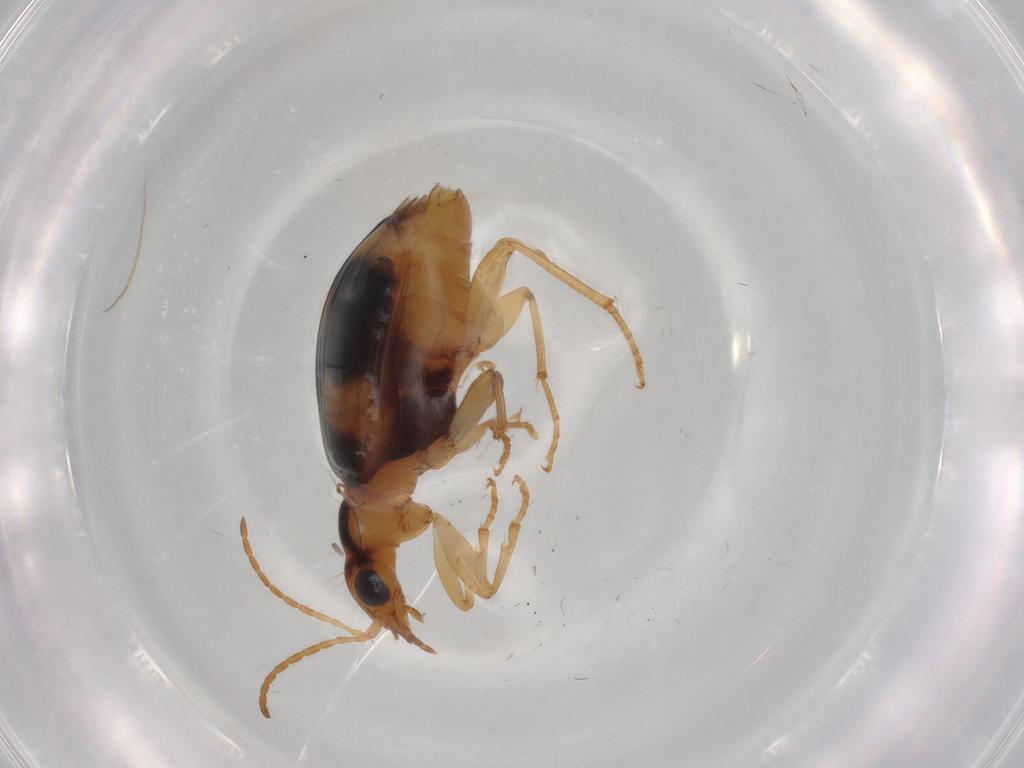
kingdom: Animalia
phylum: Arthropoda
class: Insecta
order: Coleoptera
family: Carabidae
